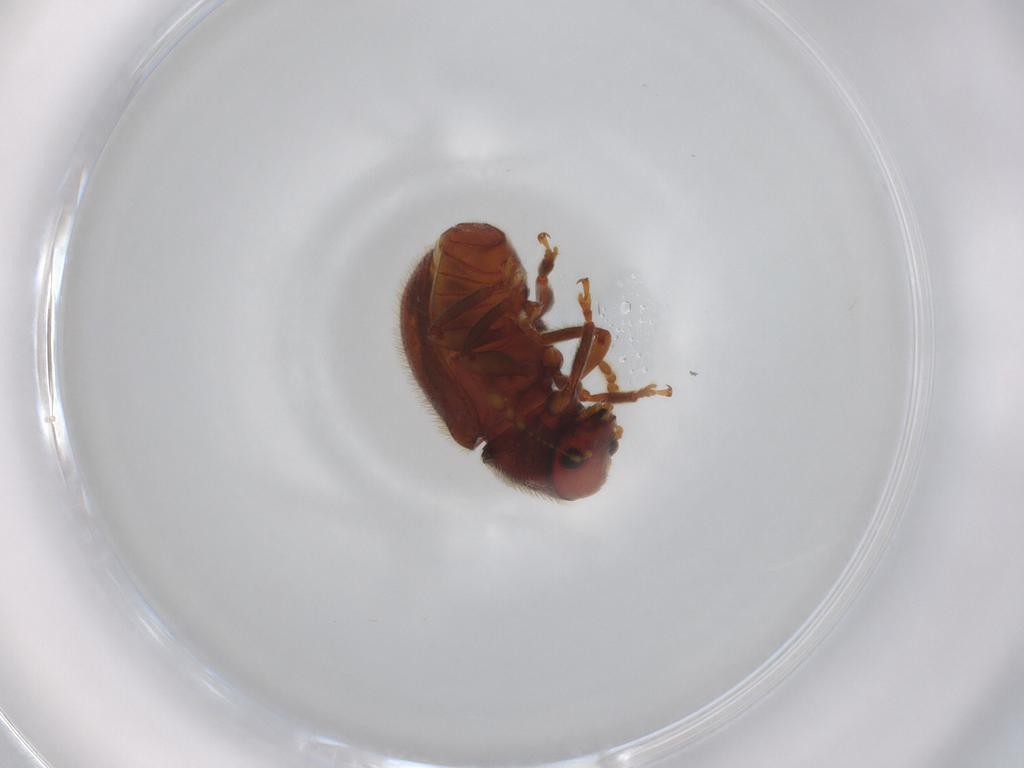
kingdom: Animalia
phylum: Arthropoda
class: Insecta
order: Coleoptera
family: Anthribidae
